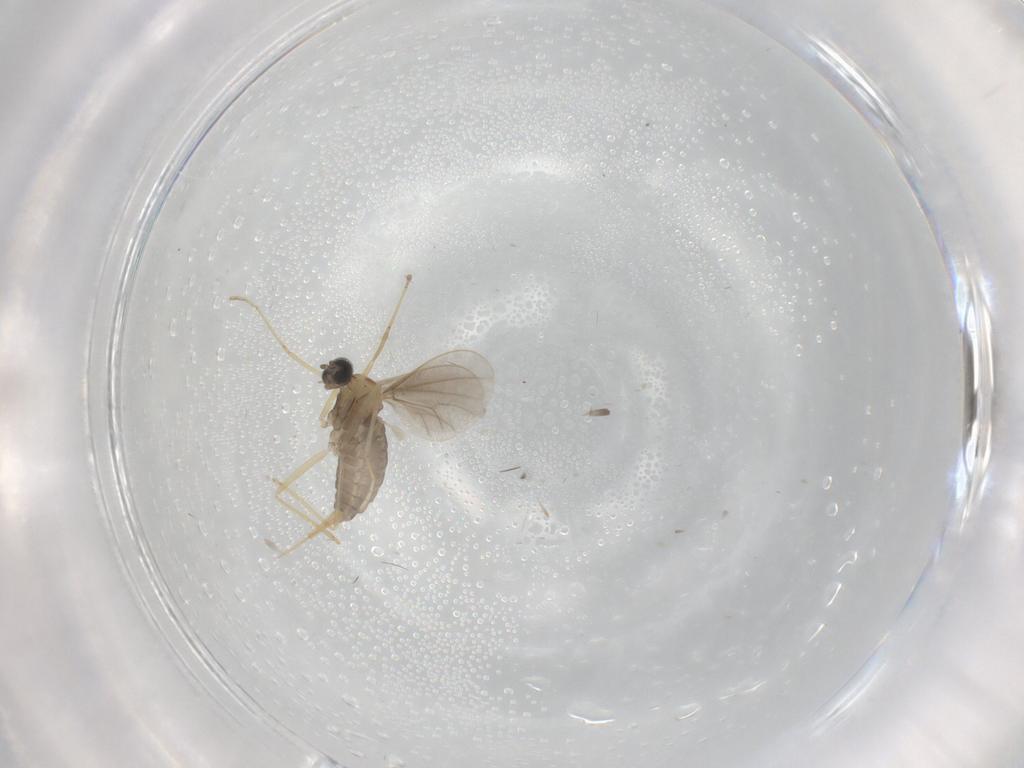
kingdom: Animalia
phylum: Arthropoda
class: Insecta
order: Diptera
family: Cecidomyiidae
